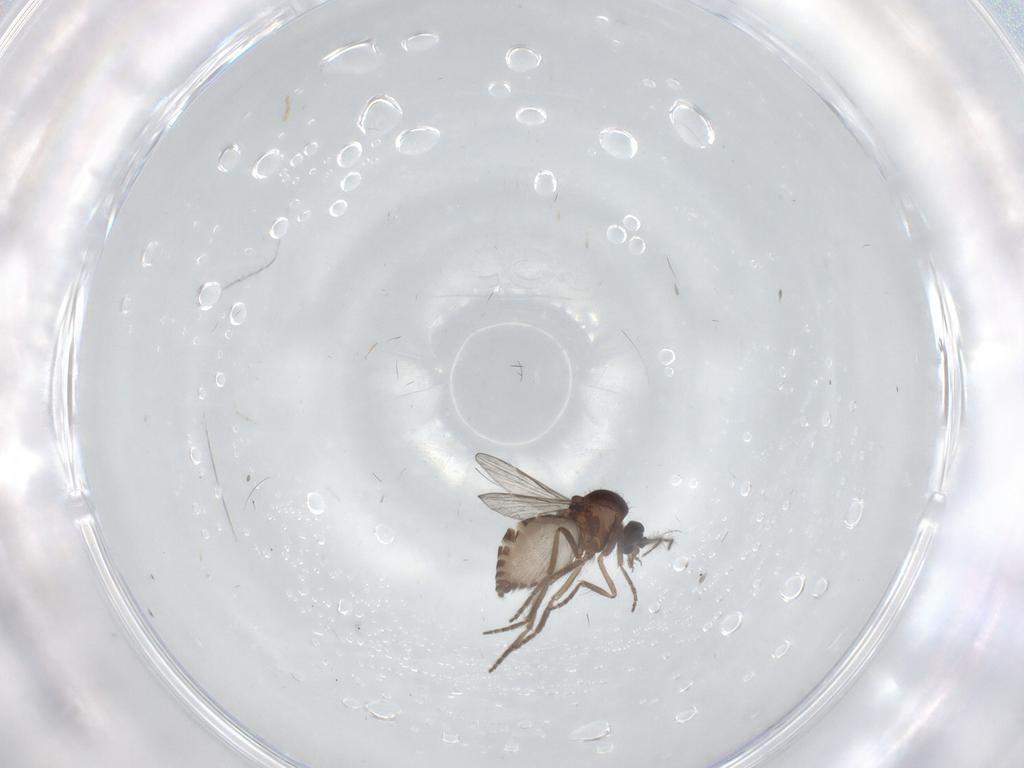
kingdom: Animalia
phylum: Arthropoda
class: Insecta
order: Diptera
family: Ceratopogonidae
